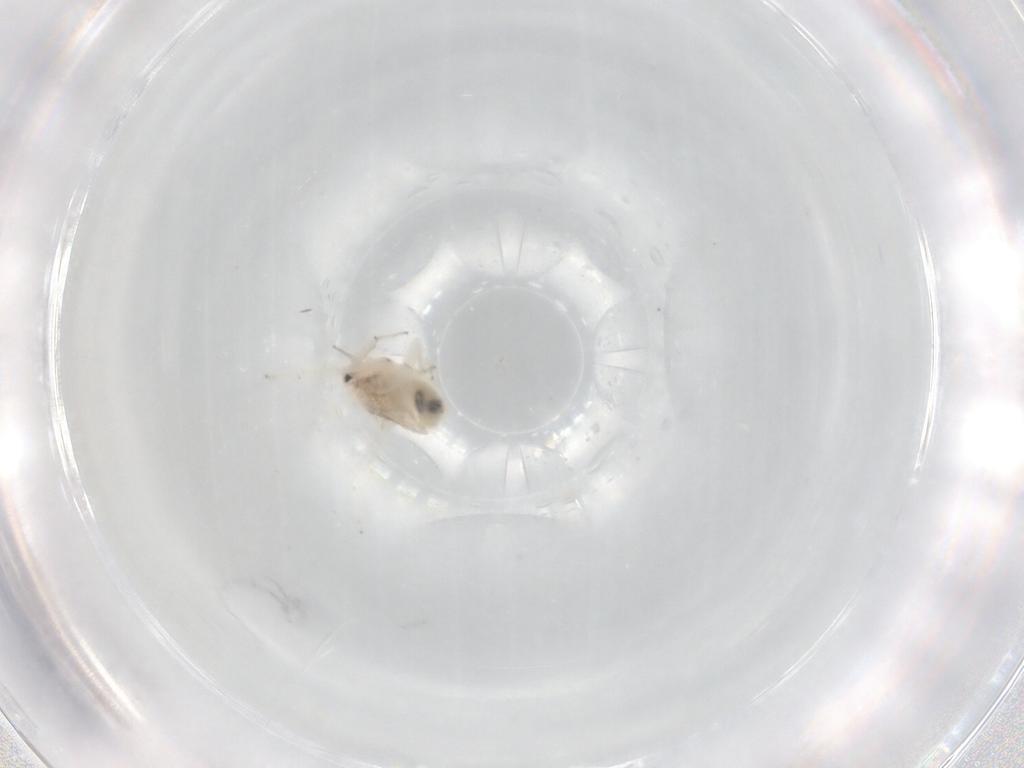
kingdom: Animalia
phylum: Arthropoda
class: Insecta
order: Psocodea
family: Lepidopsocidae
